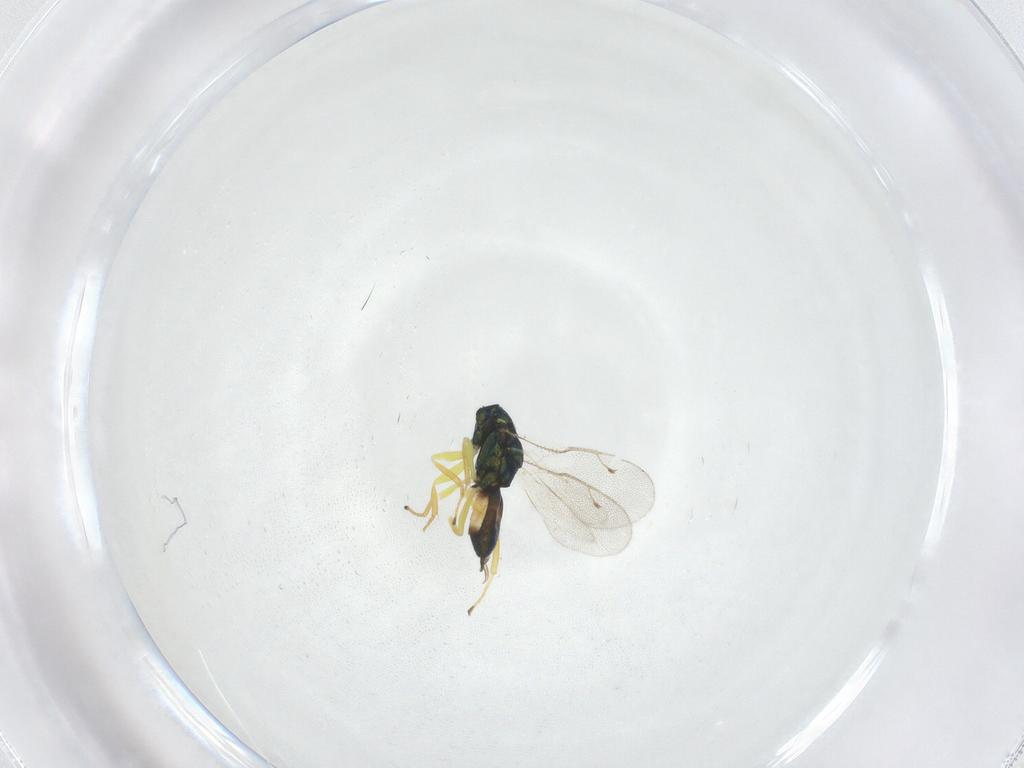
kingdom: Animalia
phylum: Arthropoda
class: Insecta
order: Hymenoptera
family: Pteromalidae
